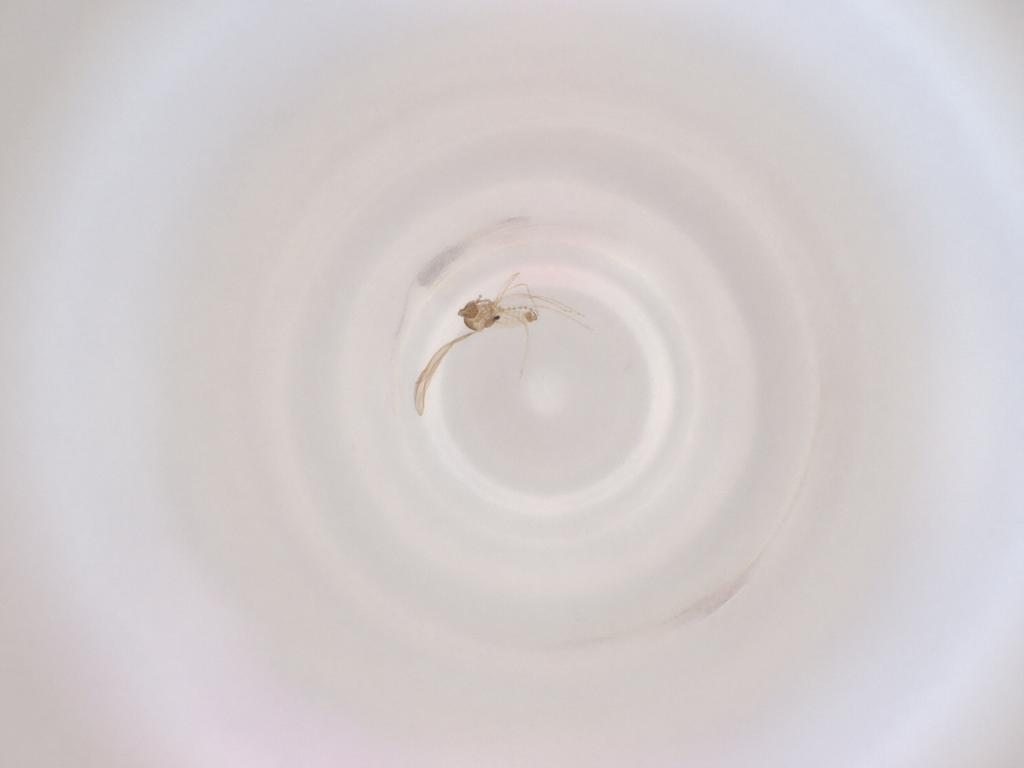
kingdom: Animalia
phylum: Arthropoda
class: Insecta
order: Diptera
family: Cecidomyiidae
